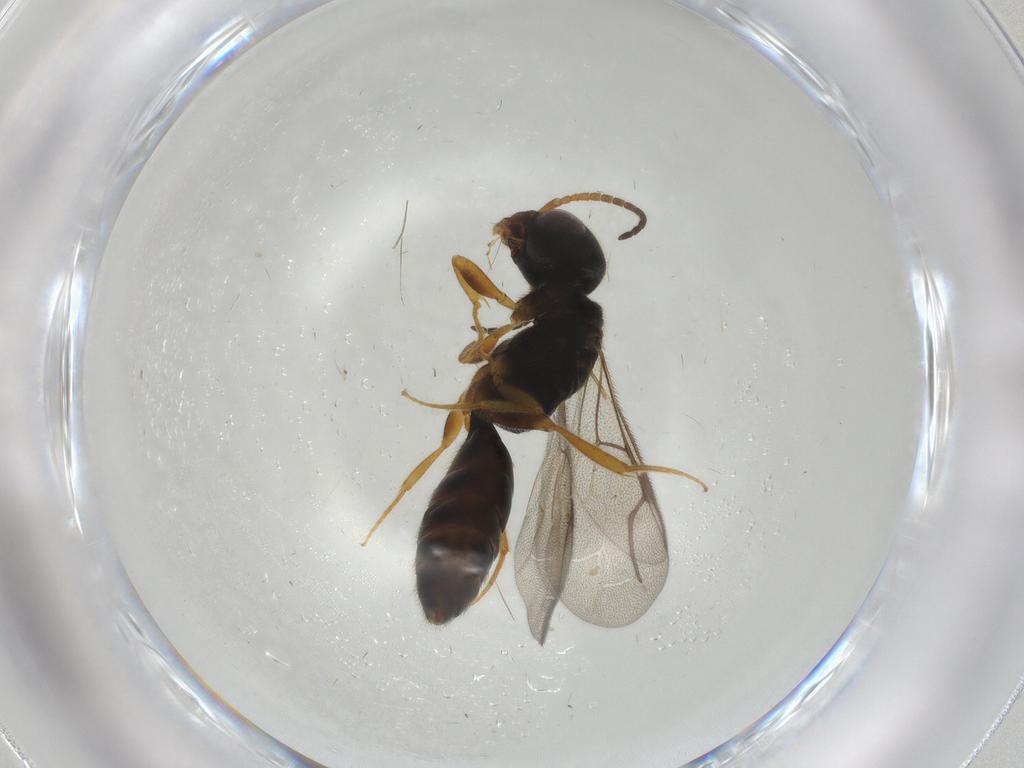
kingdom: Animalia
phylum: Arthropoda
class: Insecta
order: Hymenoptera
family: Bethylidae
